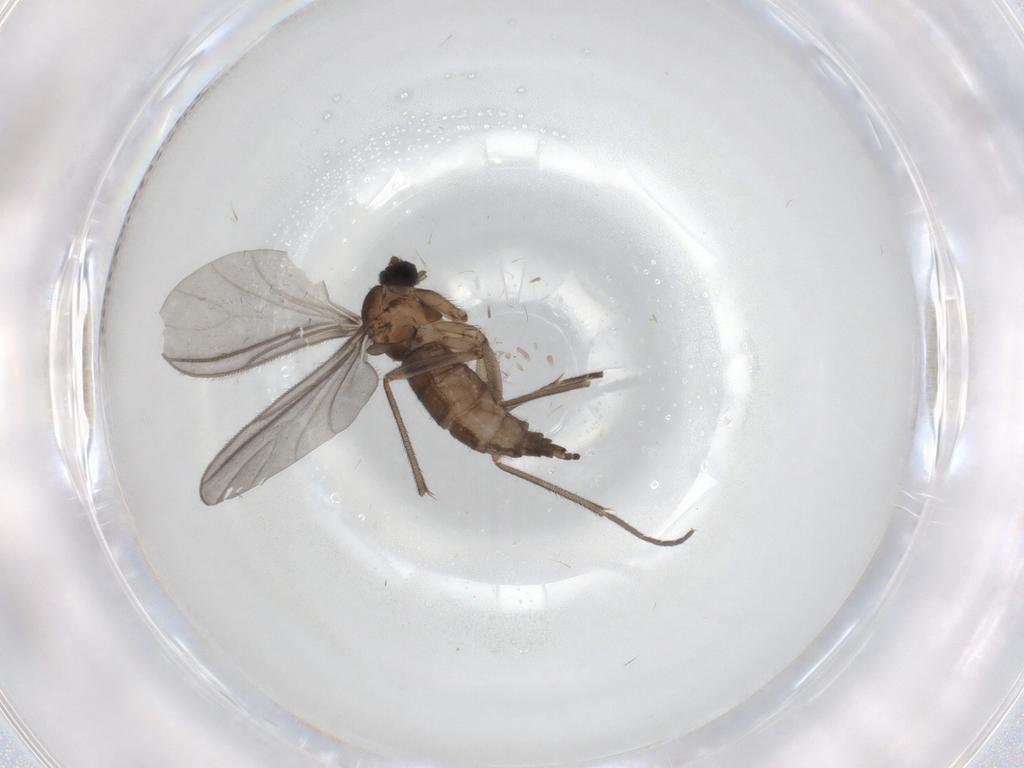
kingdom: Animalia
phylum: Arthropoda
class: Insecta
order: Diptera
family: Sciaridae
